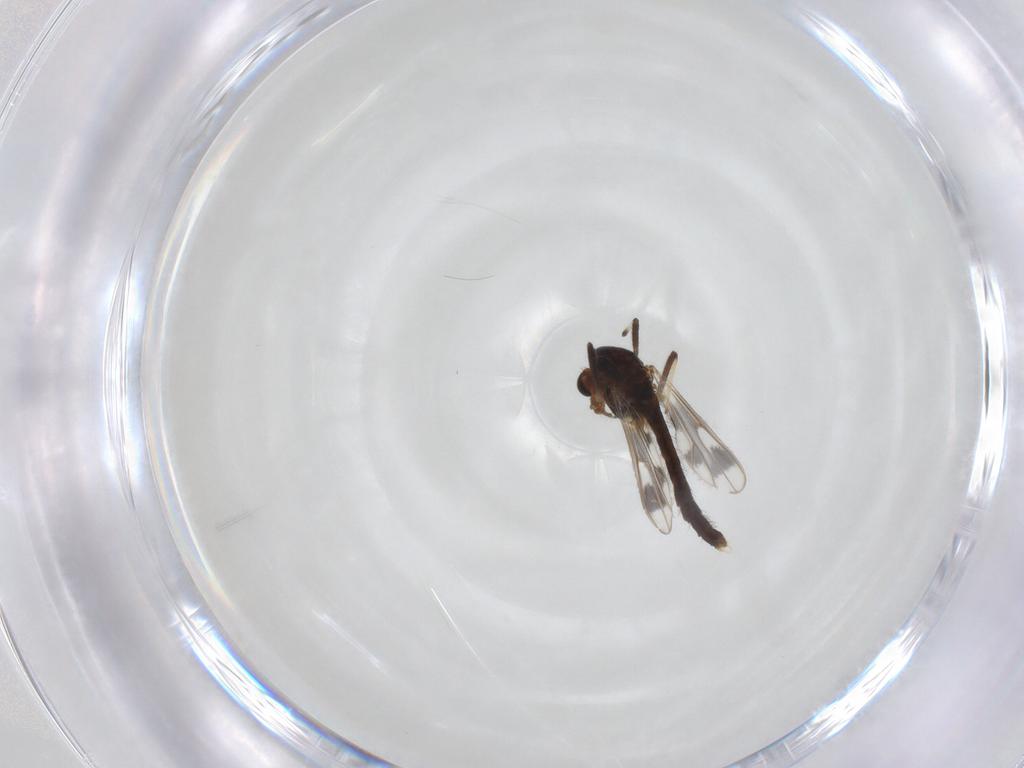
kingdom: Animalia
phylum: Arthropoda
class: Insecta
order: Diptera
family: Chironomidae
